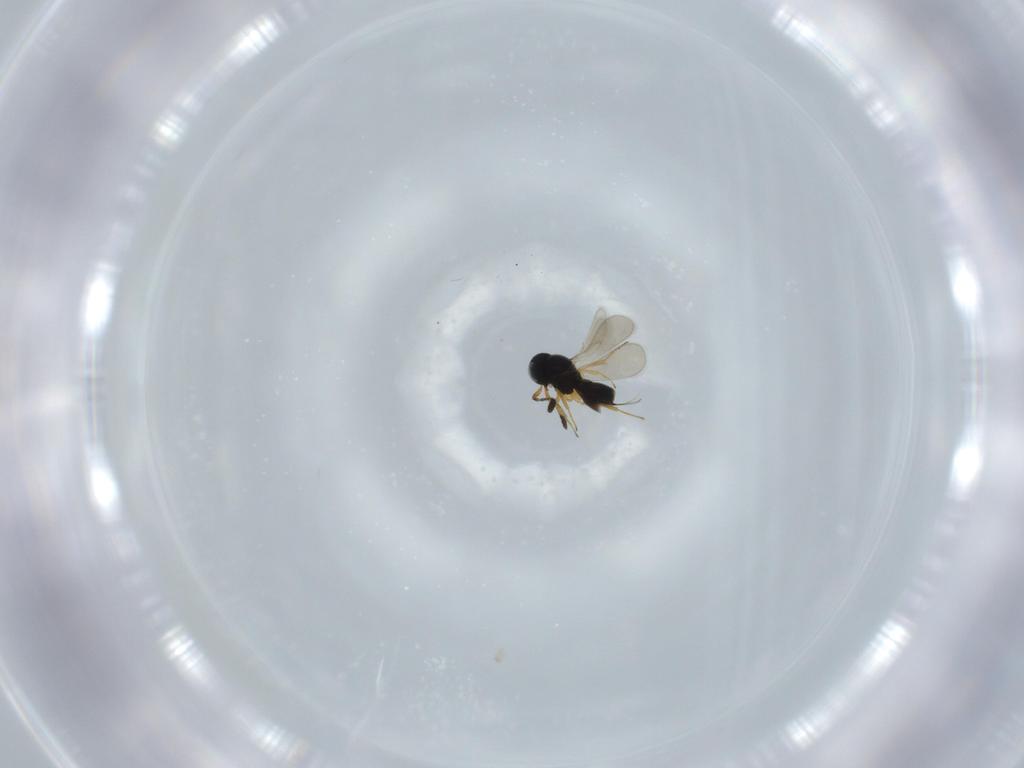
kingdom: Animalia
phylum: Arthropoda
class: Insecta
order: Hymenoptera
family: Scelionidae
